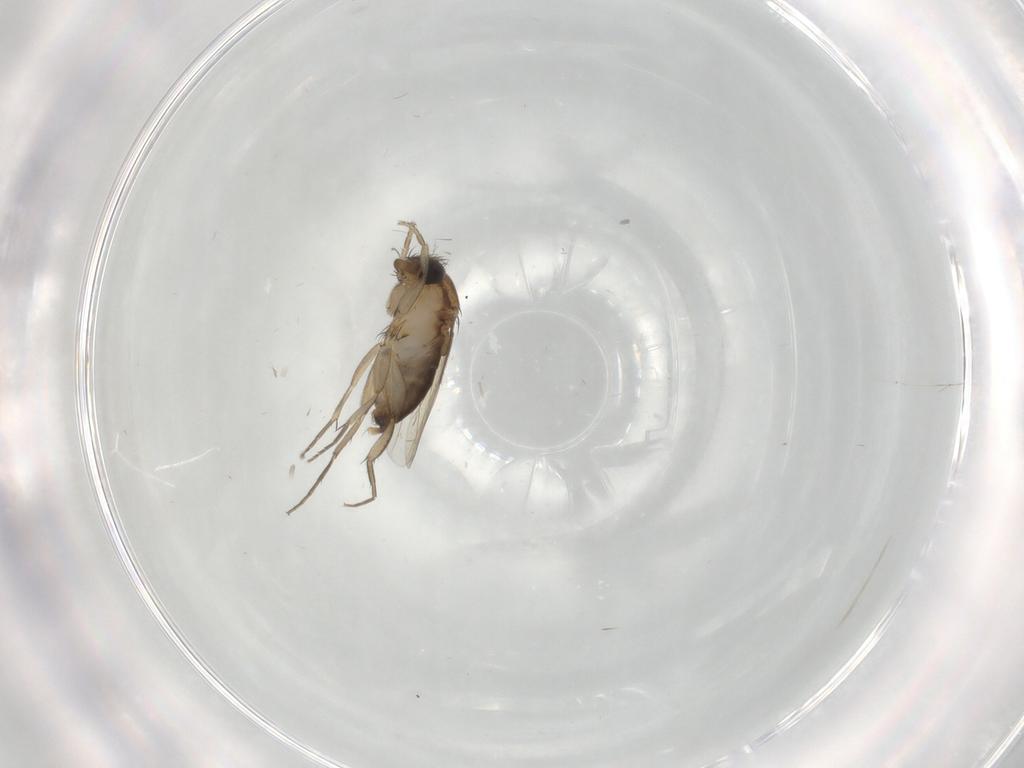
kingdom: Animalia
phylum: Arthropoda
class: Insecta
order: Diptera
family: Phoridae
